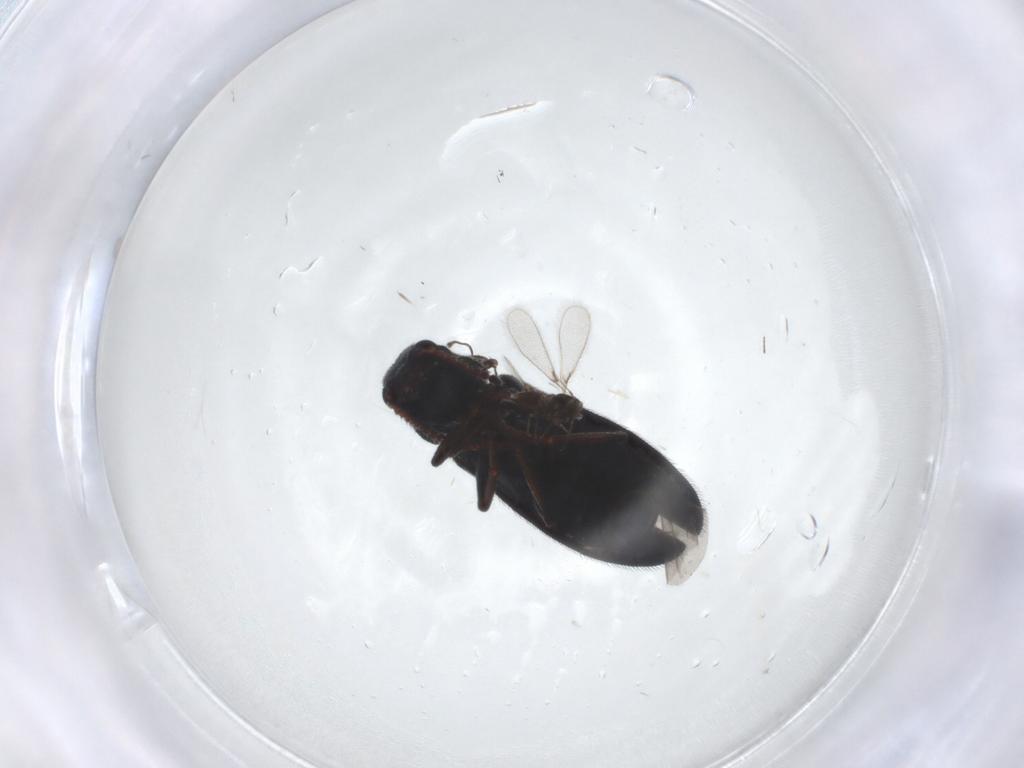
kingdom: Animalia
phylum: Arthropoda
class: Insecta
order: Coleoptera
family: Melyridae
